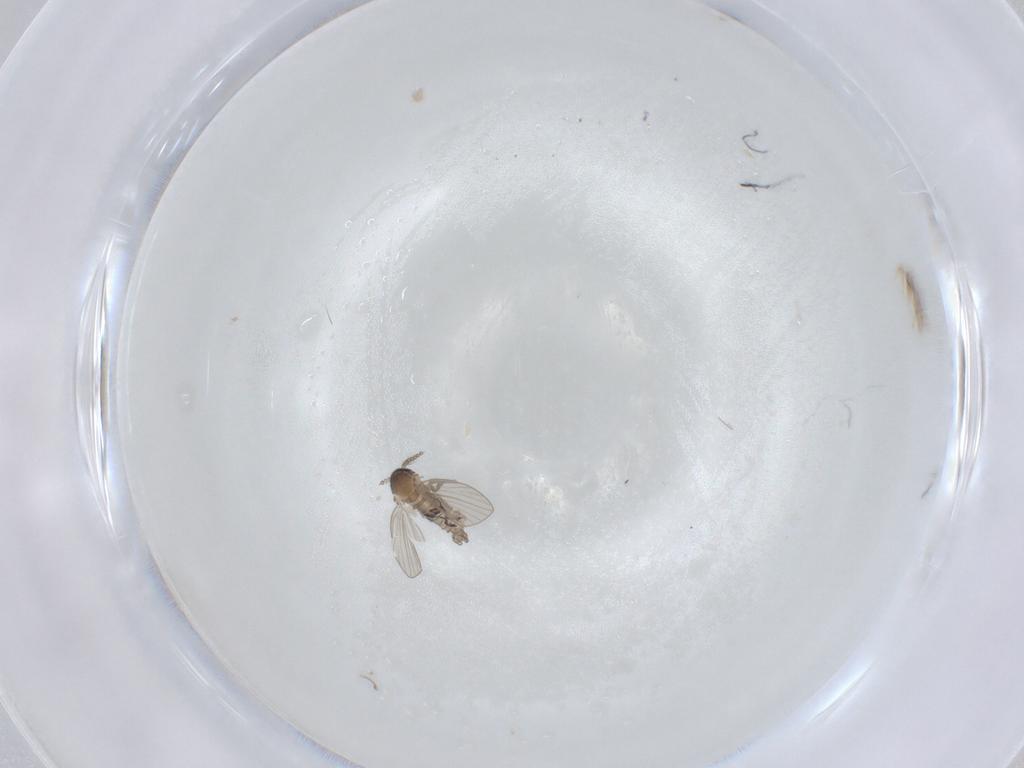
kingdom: Animalia
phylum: Arthropoda
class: Insecta
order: Diptera
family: Psychodidae
